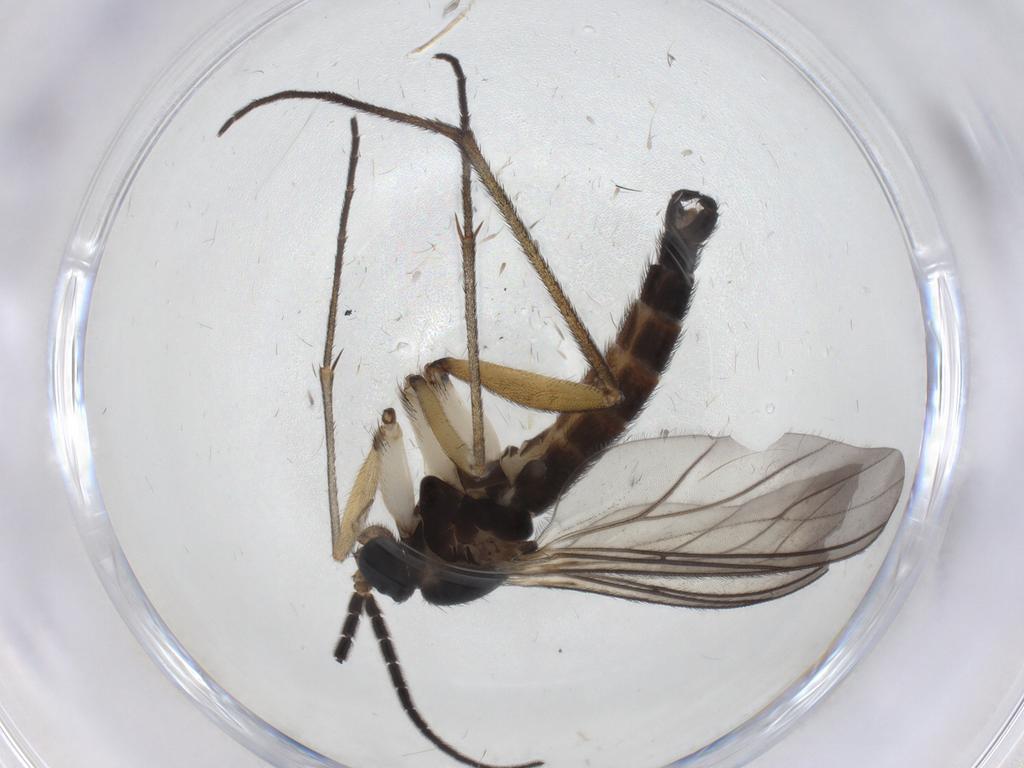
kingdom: Animalia
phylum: Arthropoda
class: Insecta
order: Diptera
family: Sciaridae
